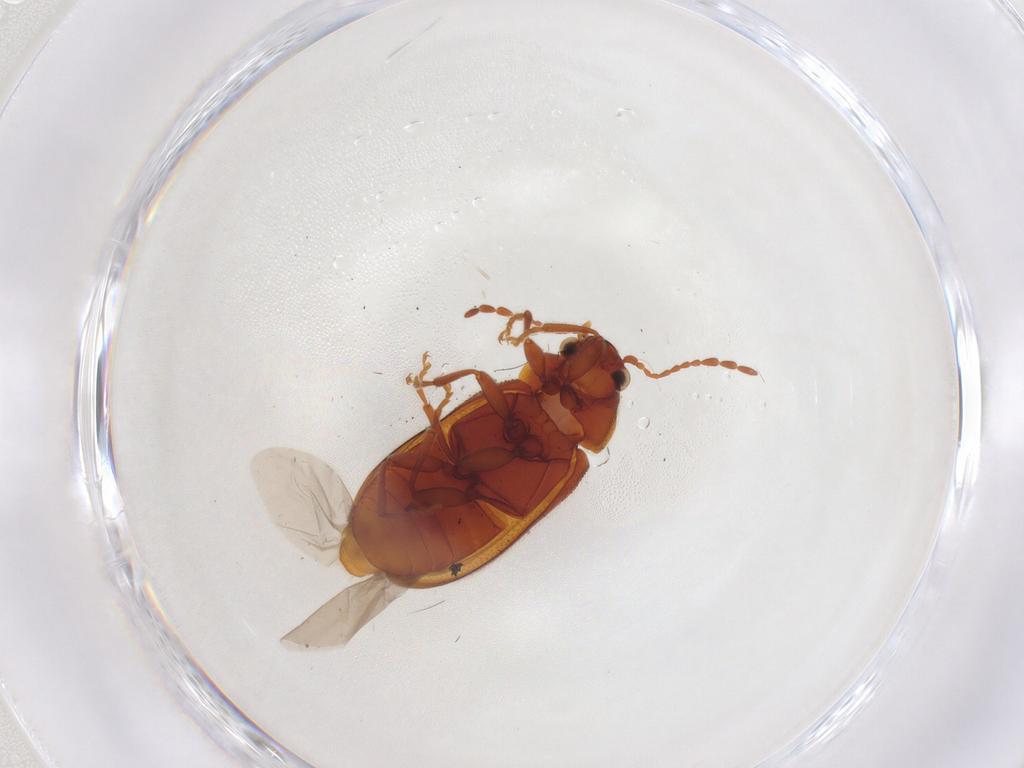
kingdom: Animalia
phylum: Arthropoda
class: Insecta
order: Coleoptera
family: Ptinidae
